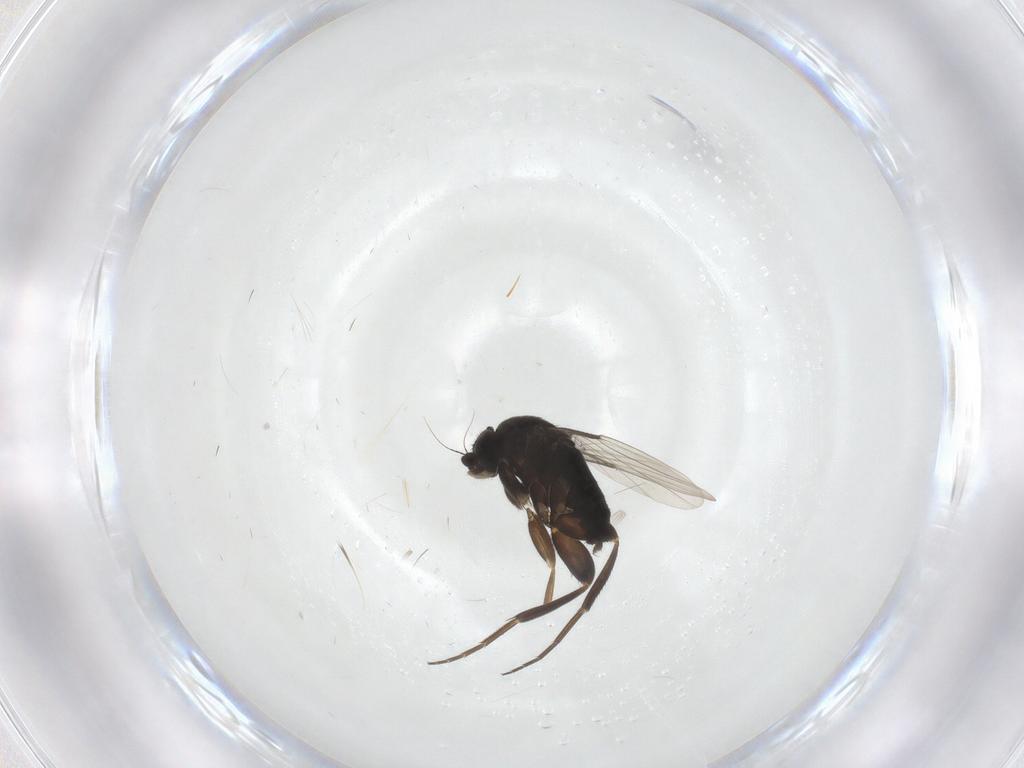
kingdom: Animalia
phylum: Arthropoda
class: Insecta
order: Diptera
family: Phoridae
